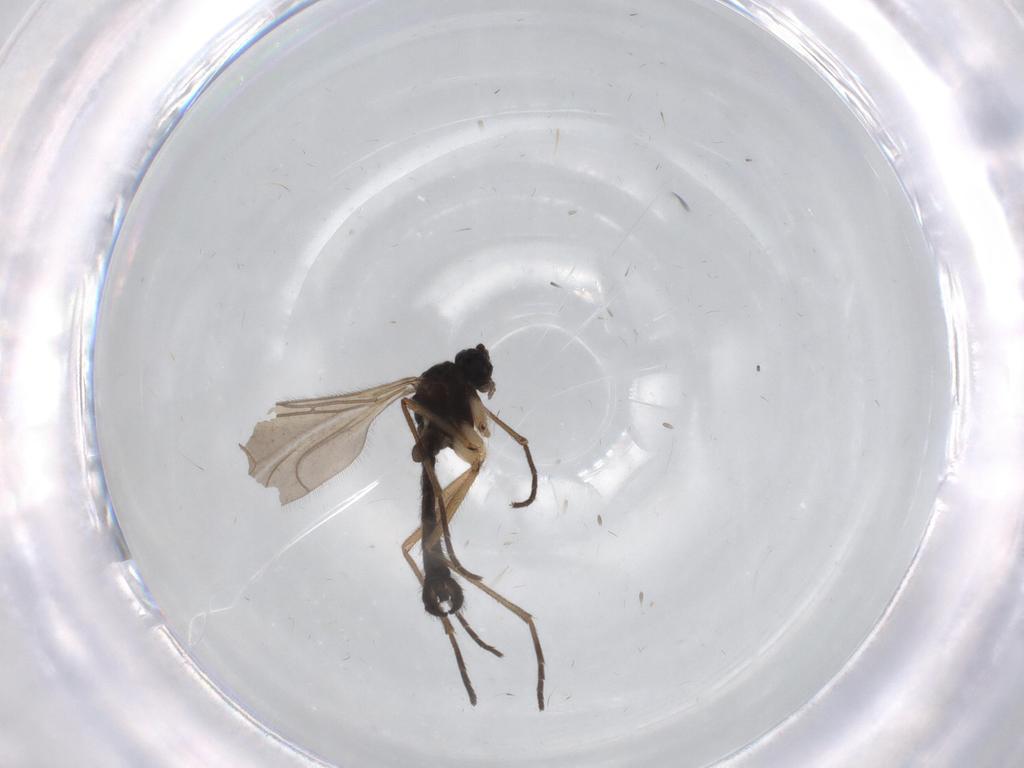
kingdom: Animalia
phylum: Arthropoda
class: Insecta
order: Diptera
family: Sciaridae
